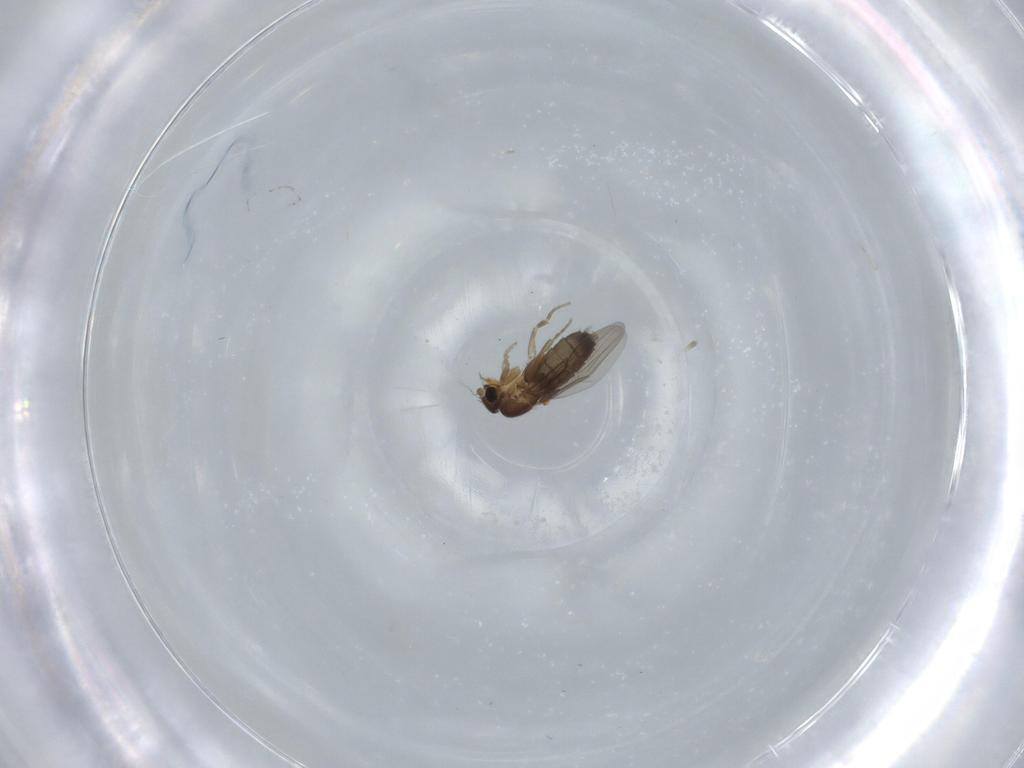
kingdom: Animalia
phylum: Arthropoda
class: Insecta
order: Diptera
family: Phoridae
